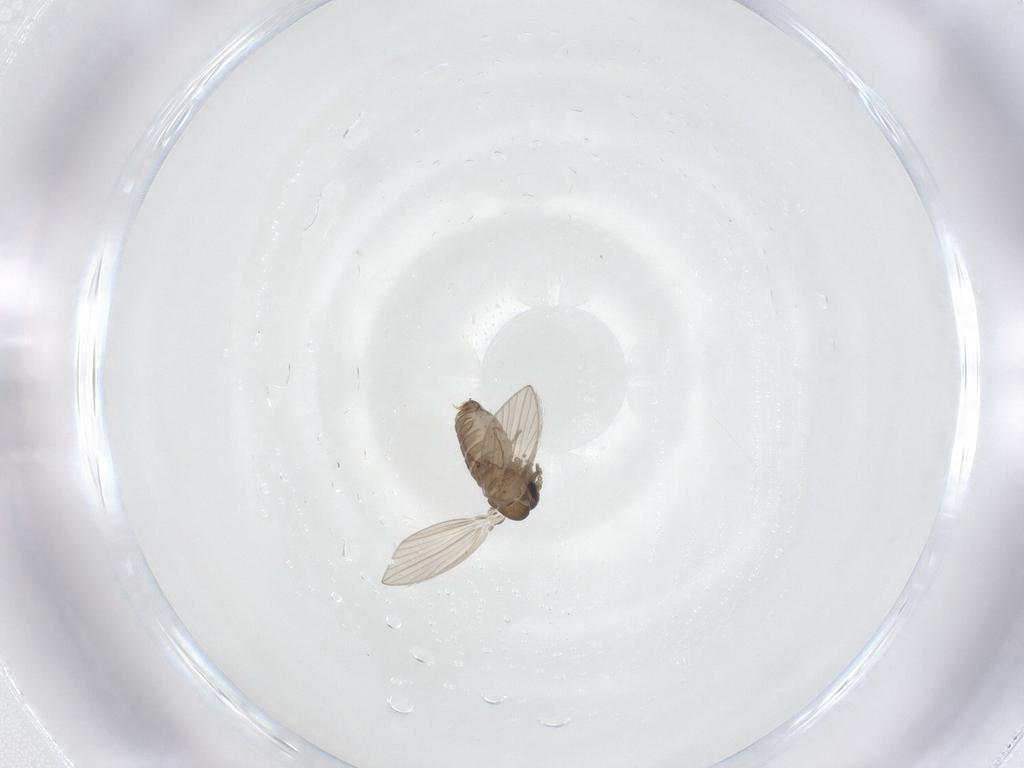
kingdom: Animalia
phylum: Arthropoda
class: Insecta
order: Diptera
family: Psychodidae
